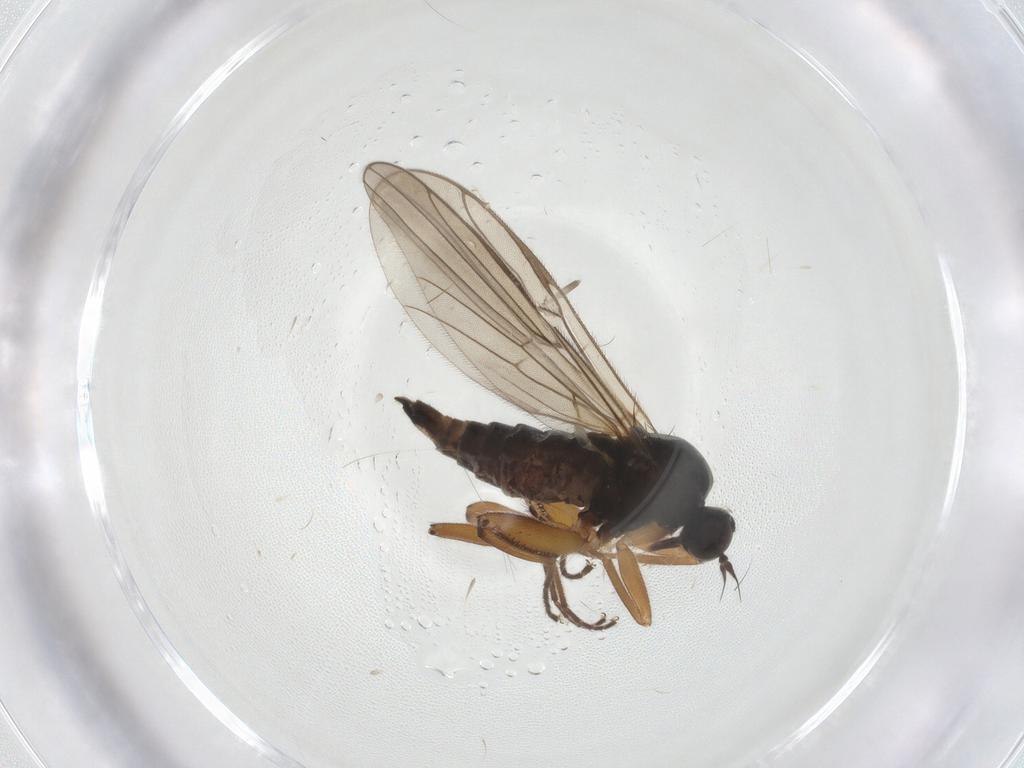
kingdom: Animalia
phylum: Arthropoda
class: Insecta
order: Diptera
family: Hybotidae
